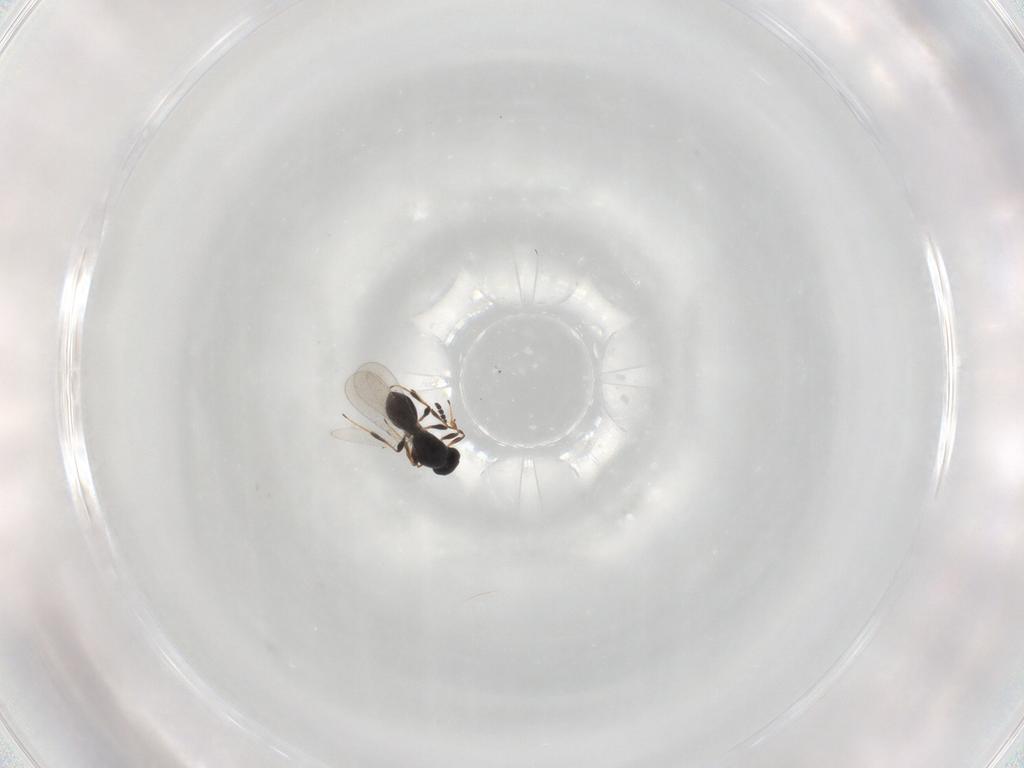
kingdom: Animalia
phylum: Arthropoda
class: Insecta
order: Hymenoptera
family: Platygastridae
